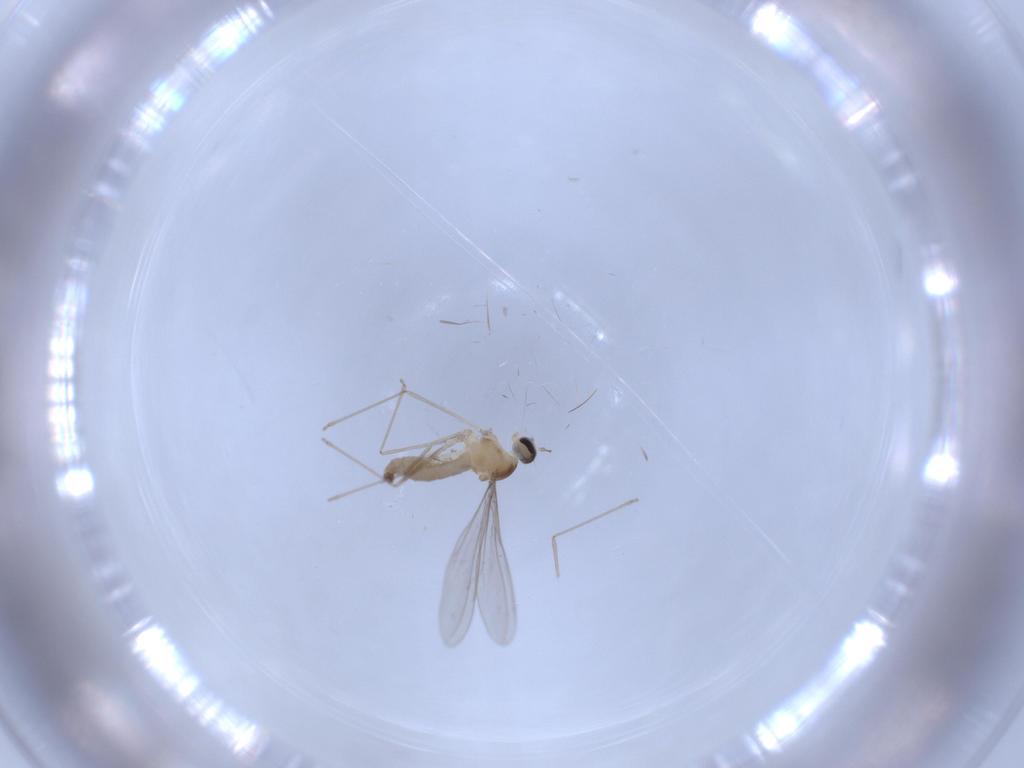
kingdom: Animalia
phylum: Arthropoda
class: Insecta
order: Diptera
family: Cecidomyiidae
